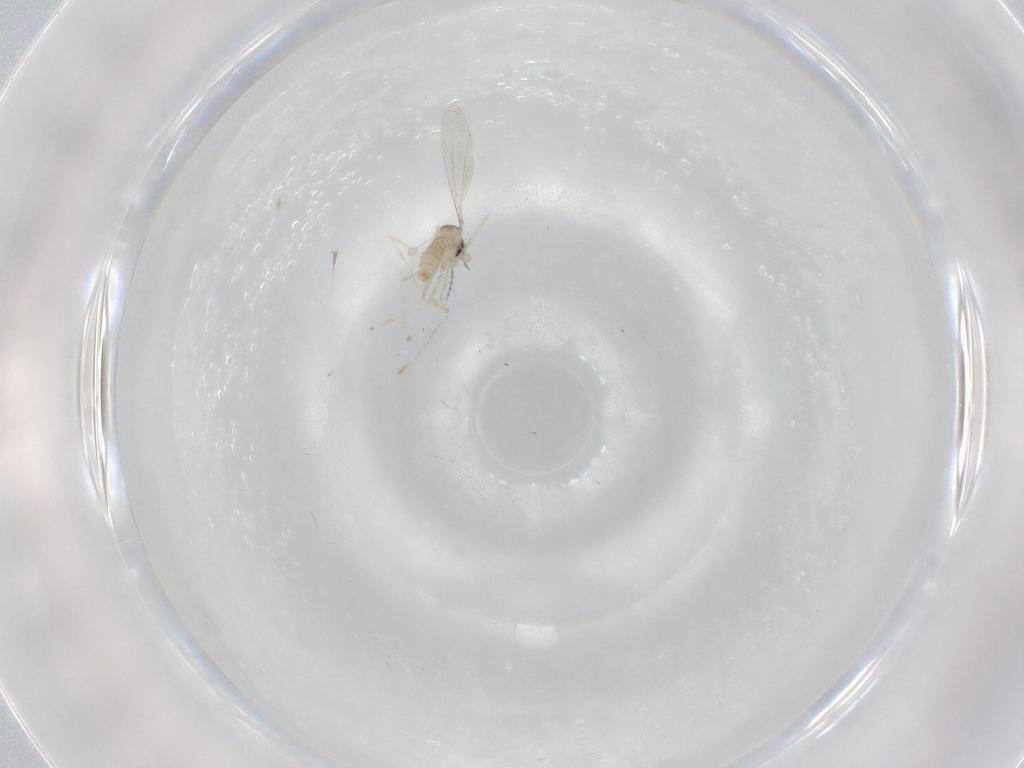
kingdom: Animalia
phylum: Arthropoda
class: Insecta
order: Diptera
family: Cecidomyiidae
